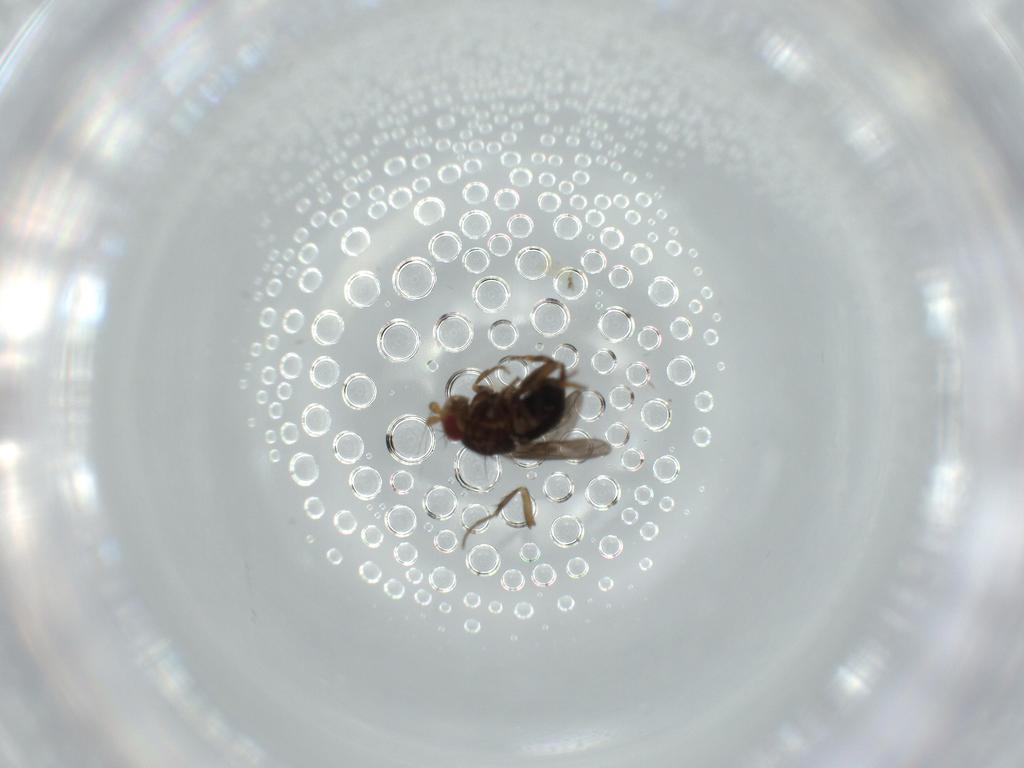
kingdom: Animalia
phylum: Arthropoda
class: Insecta
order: Diptera
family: Sphaeroceridae
